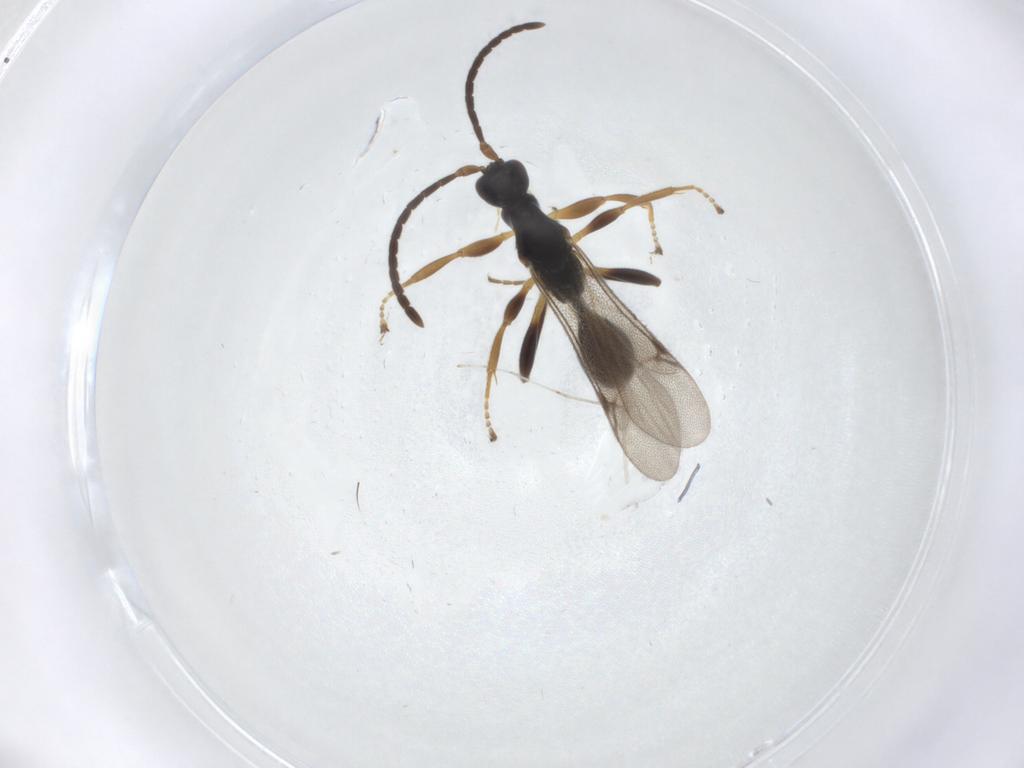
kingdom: Animalia
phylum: Arthropoda
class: Insecta
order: Hymenoptera
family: Proctotrupidae
